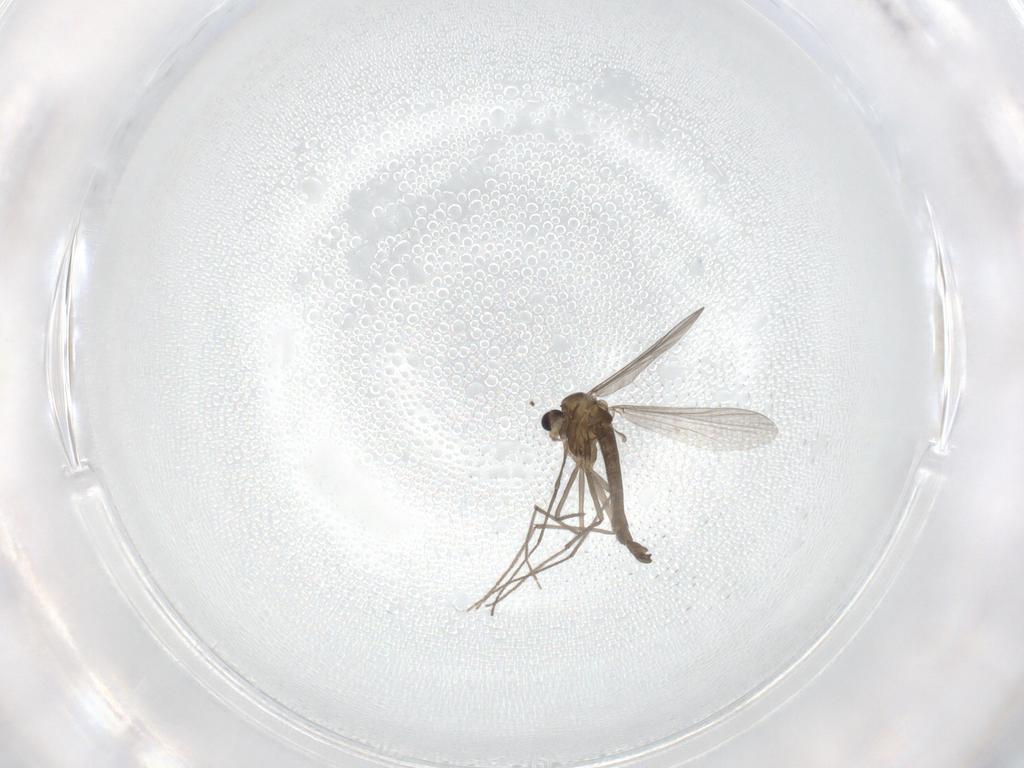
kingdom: Animalia
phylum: Arthropoda
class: Insecta
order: Diptera
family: Chironomidae
